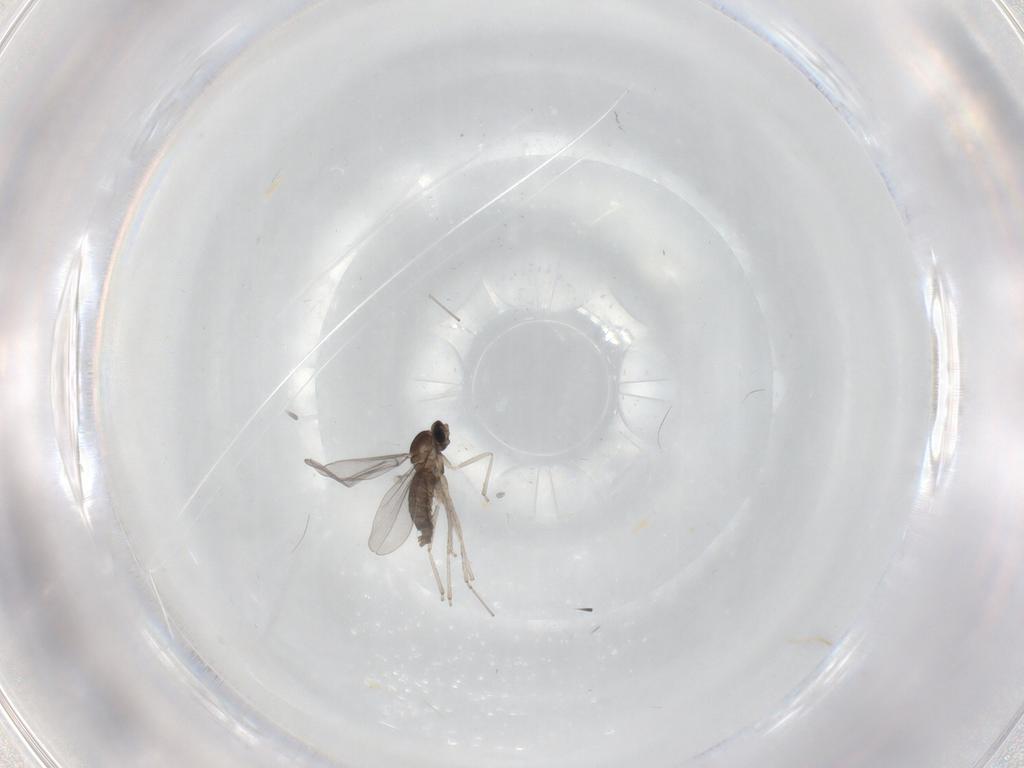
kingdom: Animalia
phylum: Arthropoda
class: Insecta
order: Diptera
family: Cecidomyiidae
